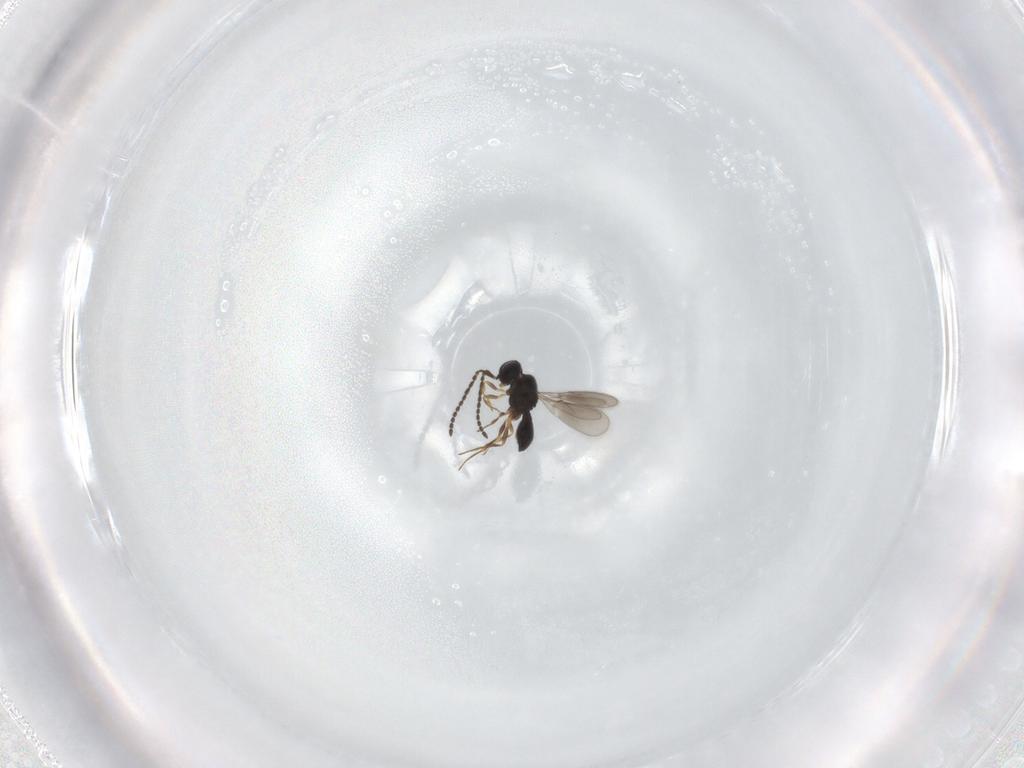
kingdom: Animalia
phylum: Arthropoda
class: Insecta
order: Hymenoptera
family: Scelionidae
